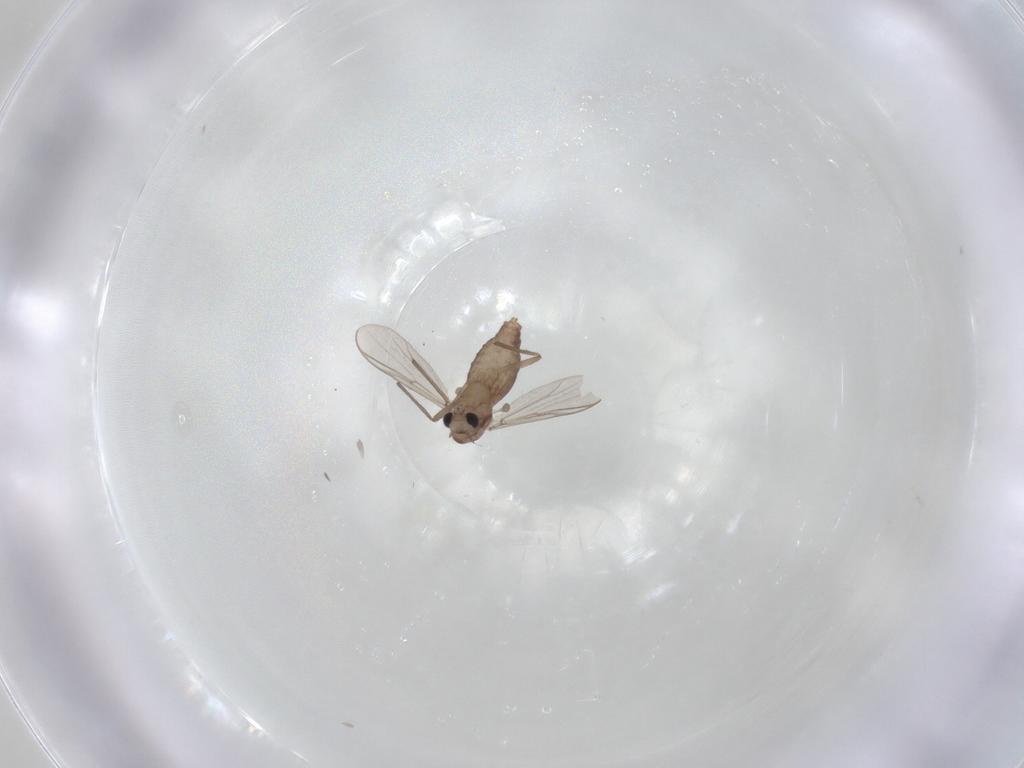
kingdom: Animalia
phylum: Arthropoda
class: Insecta
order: Diptera
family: Chironomidae
